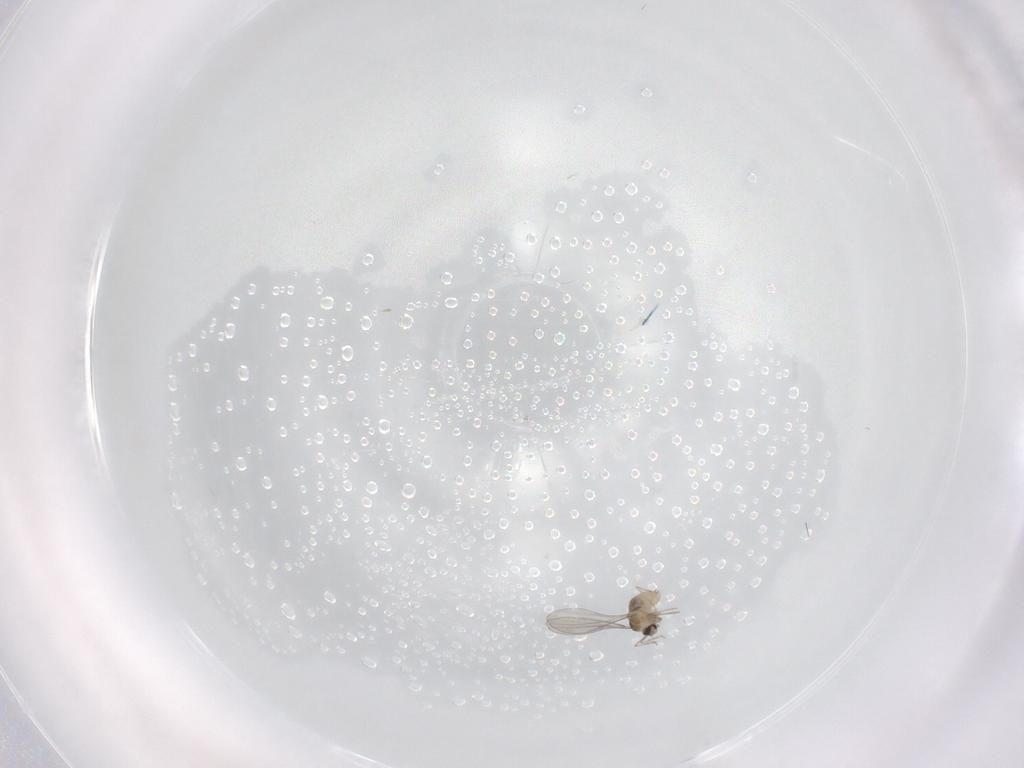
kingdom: Animalia
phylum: Arthropoda
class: Insecta
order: Diptera
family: Cecidomyiidae
